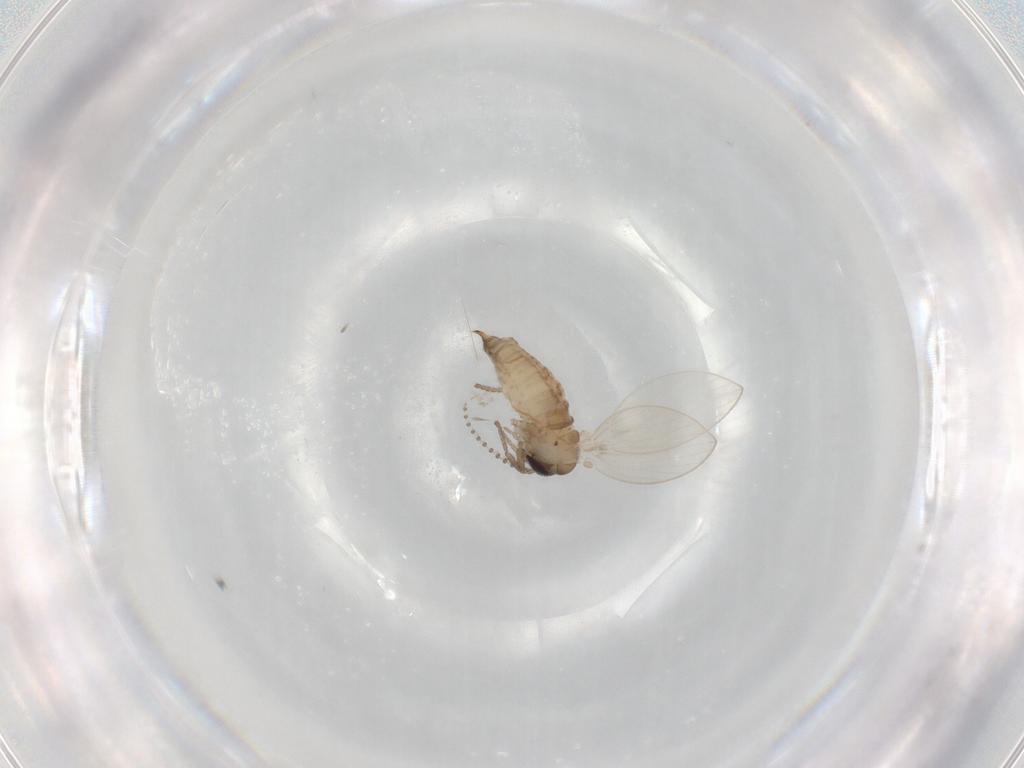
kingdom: Animalia
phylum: Arthropoda
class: Insecta
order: Diptera
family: Psychodidae
